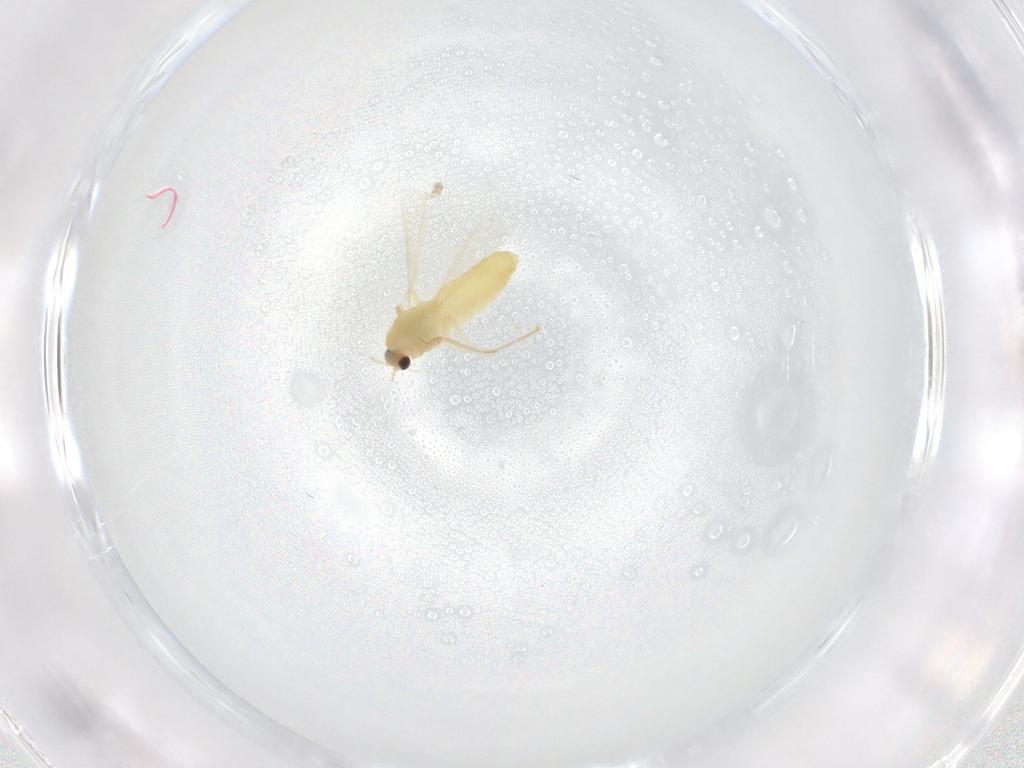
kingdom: Animalia
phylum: Arthropoda
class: Insecta
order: Diptera
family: Chironomidae
